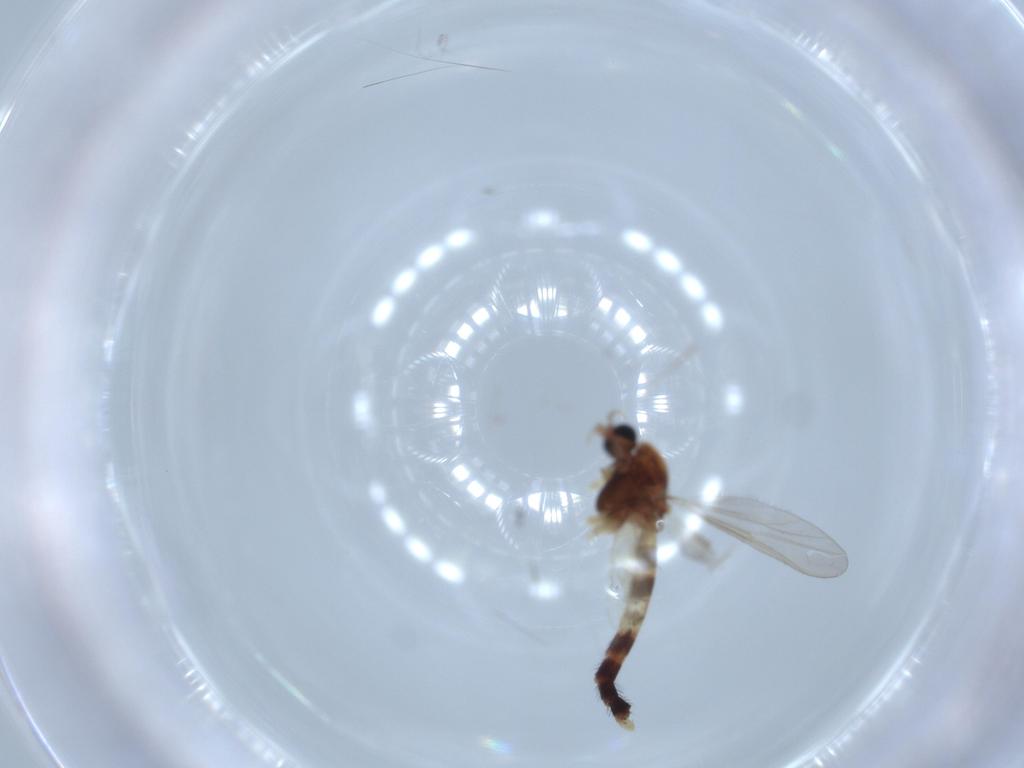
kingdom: Animalia
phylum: Arthropoda
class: Insecta
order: Diptera
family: Chironomidae
